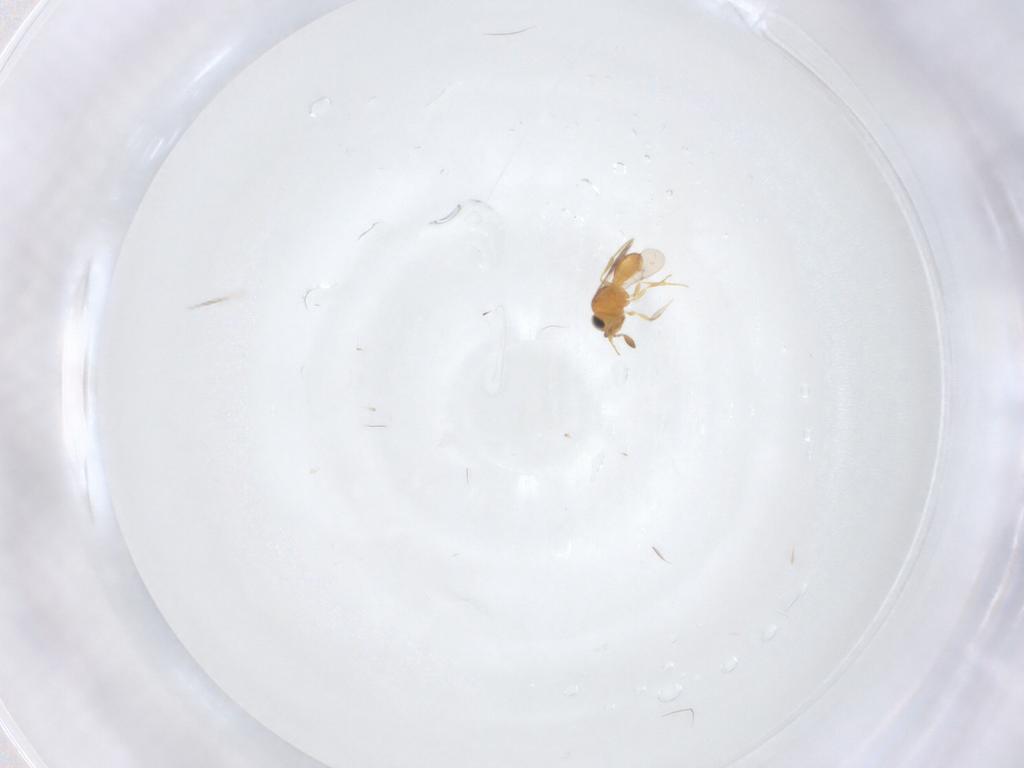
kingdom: Animalia
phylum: Arthropoda
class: Insecta
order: Hymenoptera
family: Scelionidae
